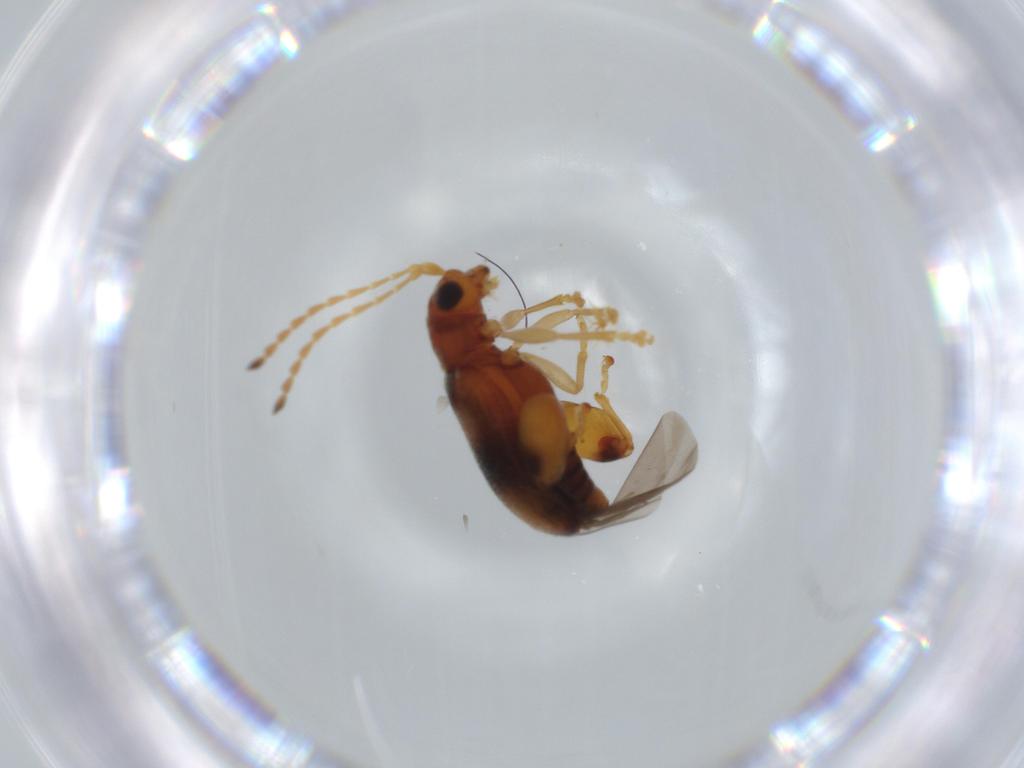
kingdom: Animalia
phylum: Arthropoda
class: Insecta
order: Coleoptera
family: Chrysomelidae
